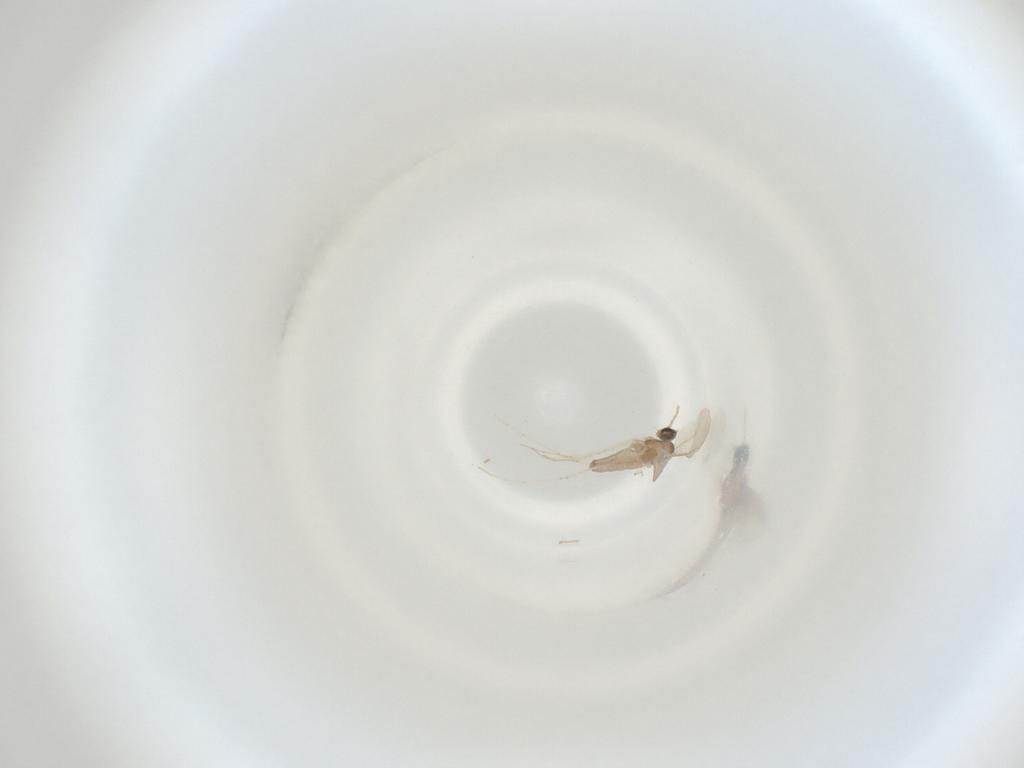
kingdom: Animalia
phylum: Arthropoda
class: Insecta
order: Diptera
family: Cecidomyiidae
